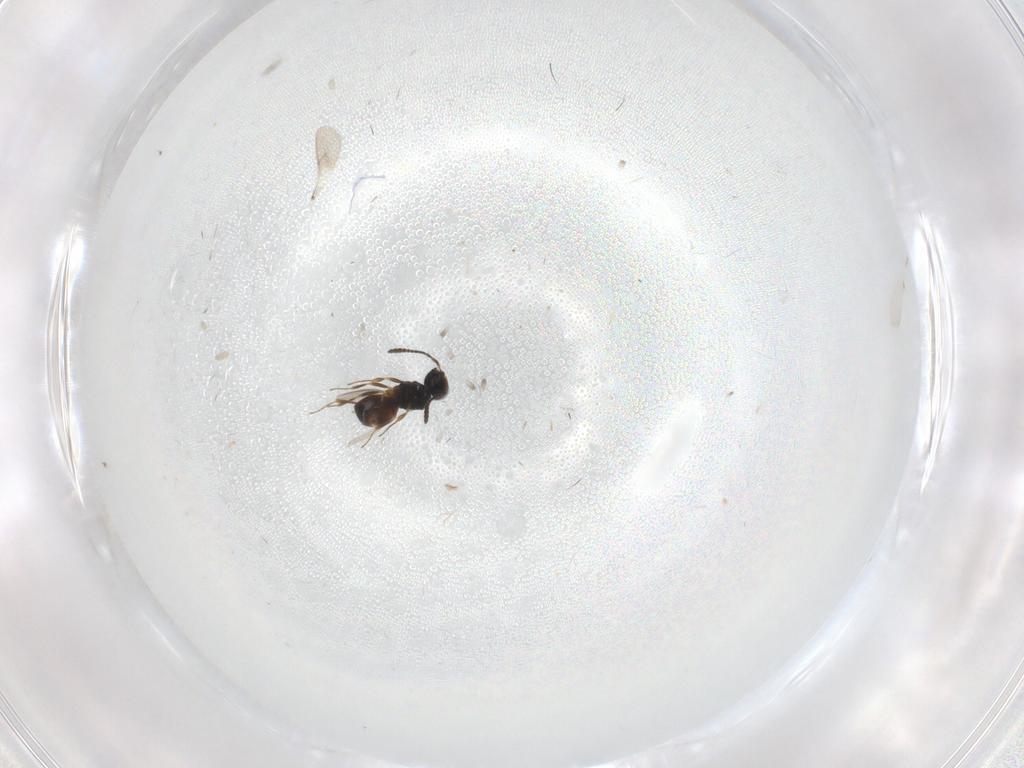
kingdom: Animalia
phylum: Arthropoda
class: Insecta
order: Hymenoptera
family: Scelionidae
